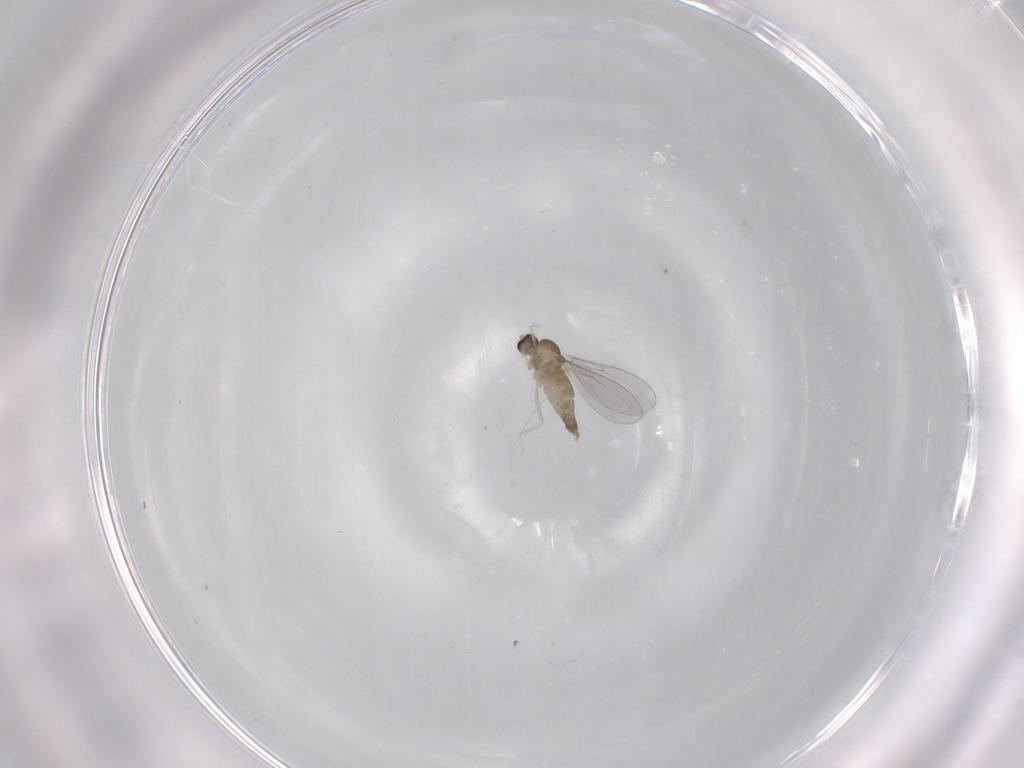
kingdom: Animalia
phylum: Arthropoda
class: Insecta
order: Diptera
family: Cecidomyiidae
